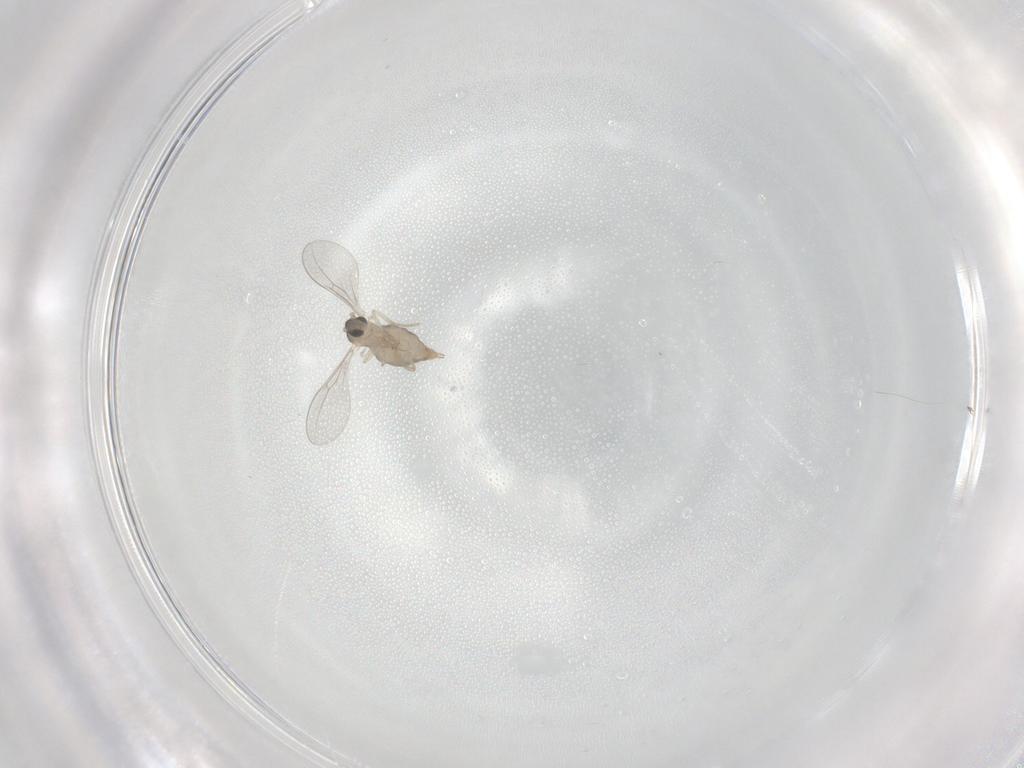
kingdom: Animalia
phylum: Arthropoda
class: Insecta
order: Diptera
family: Cecidomyiidae
